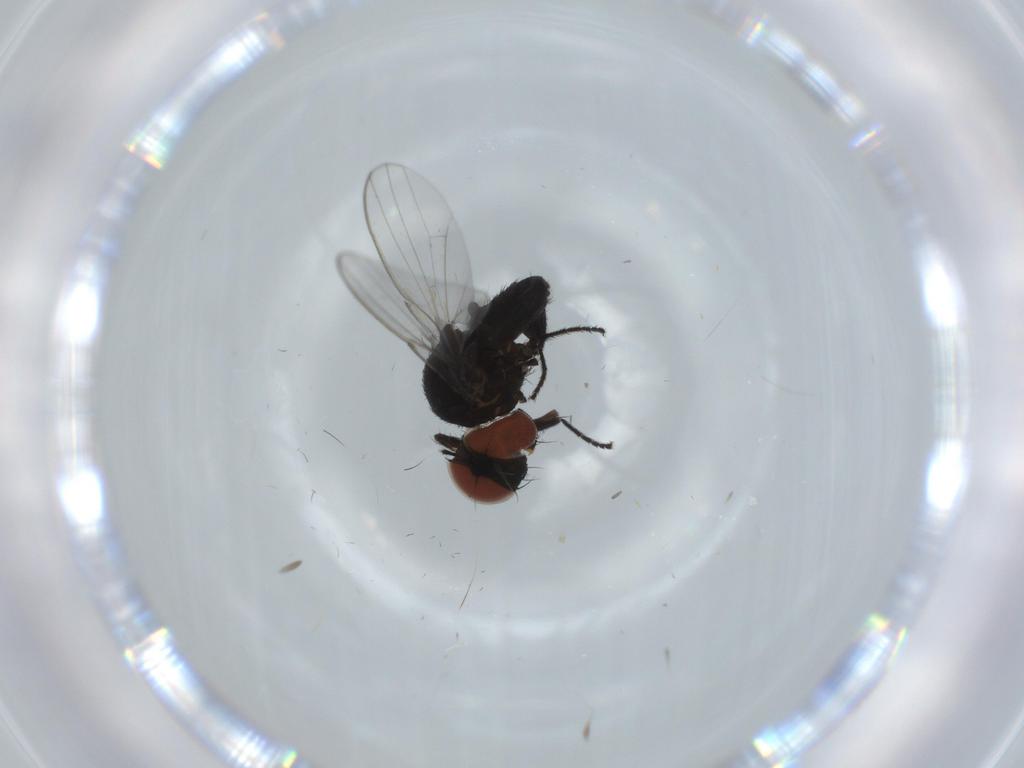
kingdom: Animalia
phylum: Arthropoda
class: Insecta
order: Diptera
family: Milichiidae
